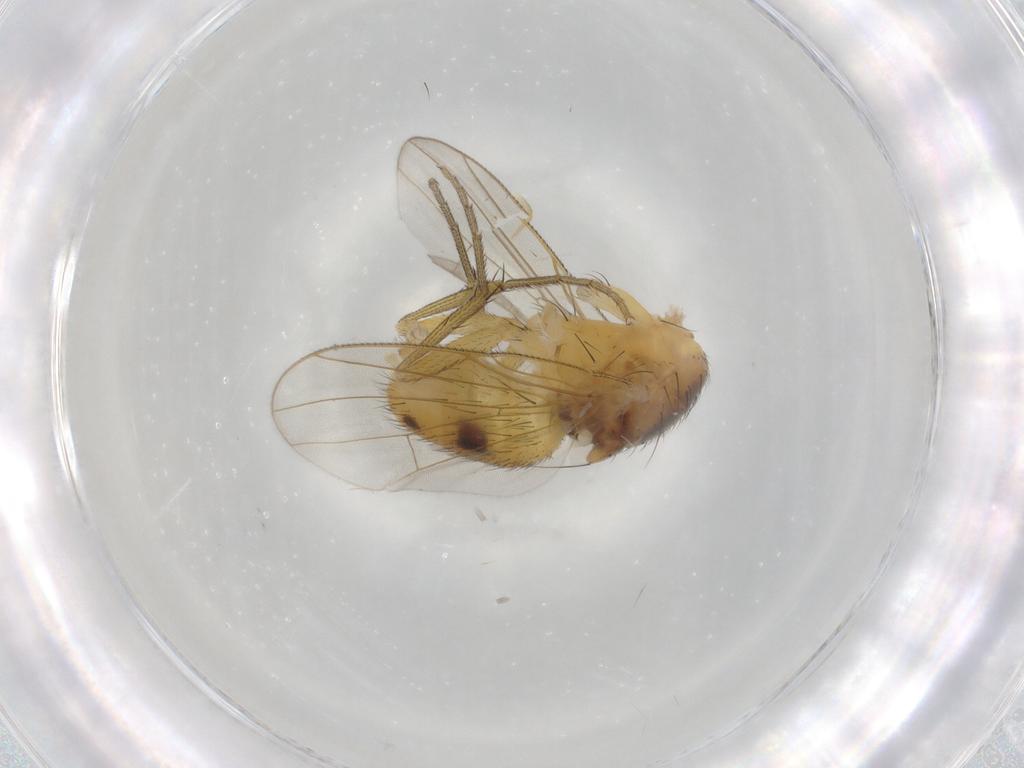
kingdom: Animalia
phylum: Arthropoda
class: Insecta
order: Diptera
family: Muscidae
